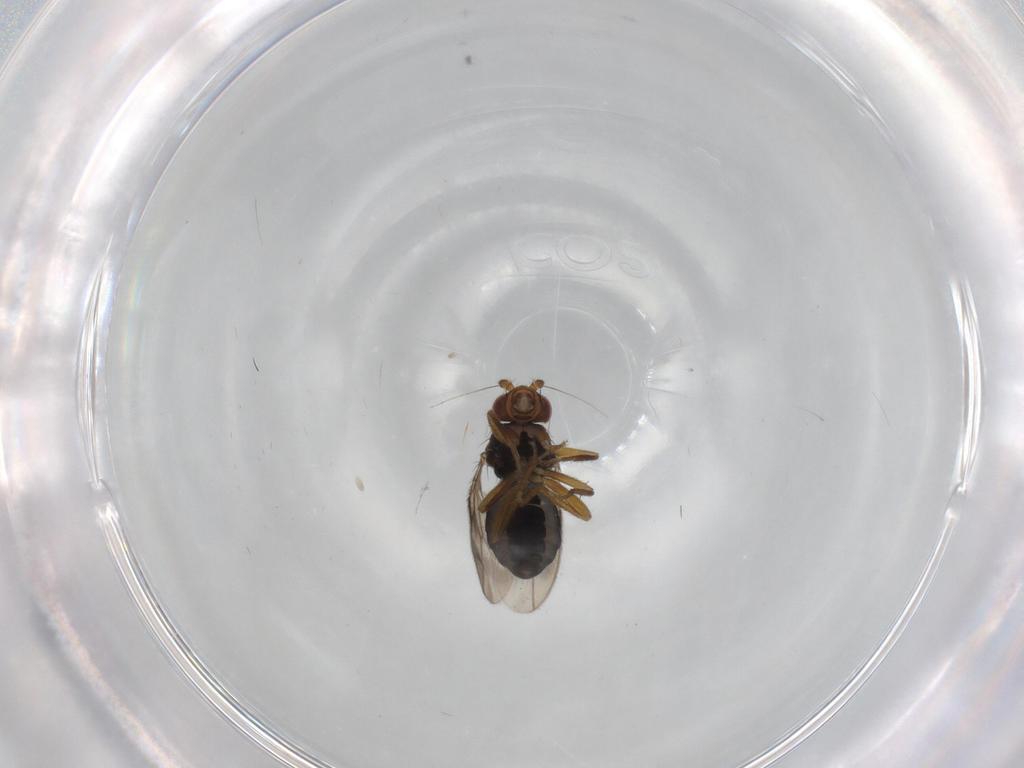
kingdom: Animalia
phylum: Arthropoda
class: Insecta
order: Diptera
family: Sphaeroceridae
